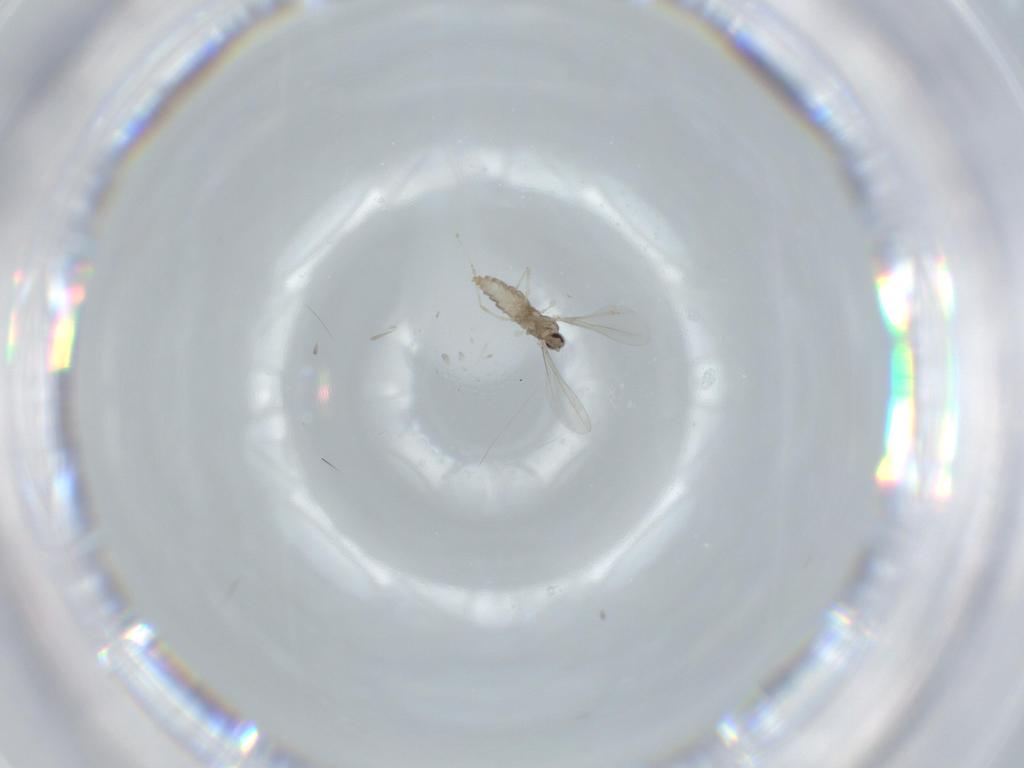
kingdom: Animalia
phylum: Arthropoda
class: Insecta
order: Diptera
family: Cecidomyiidae
